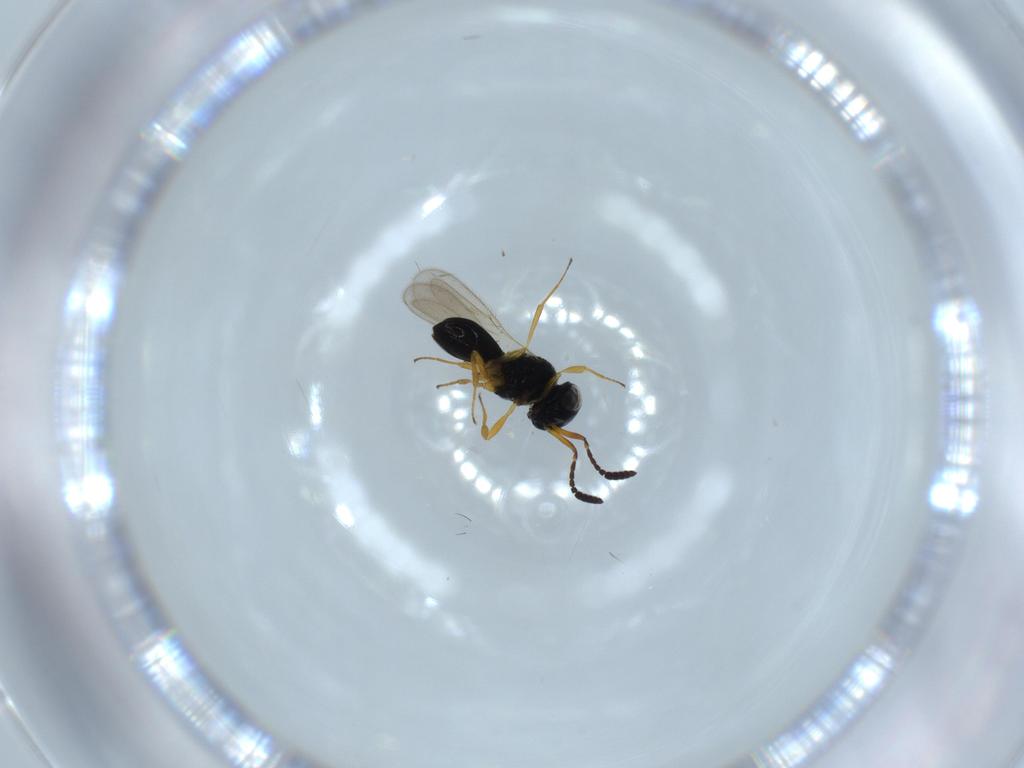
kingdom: Animalia
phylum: Arthropoda
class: Insecta
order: Hymenoptera
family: Scelionidae
